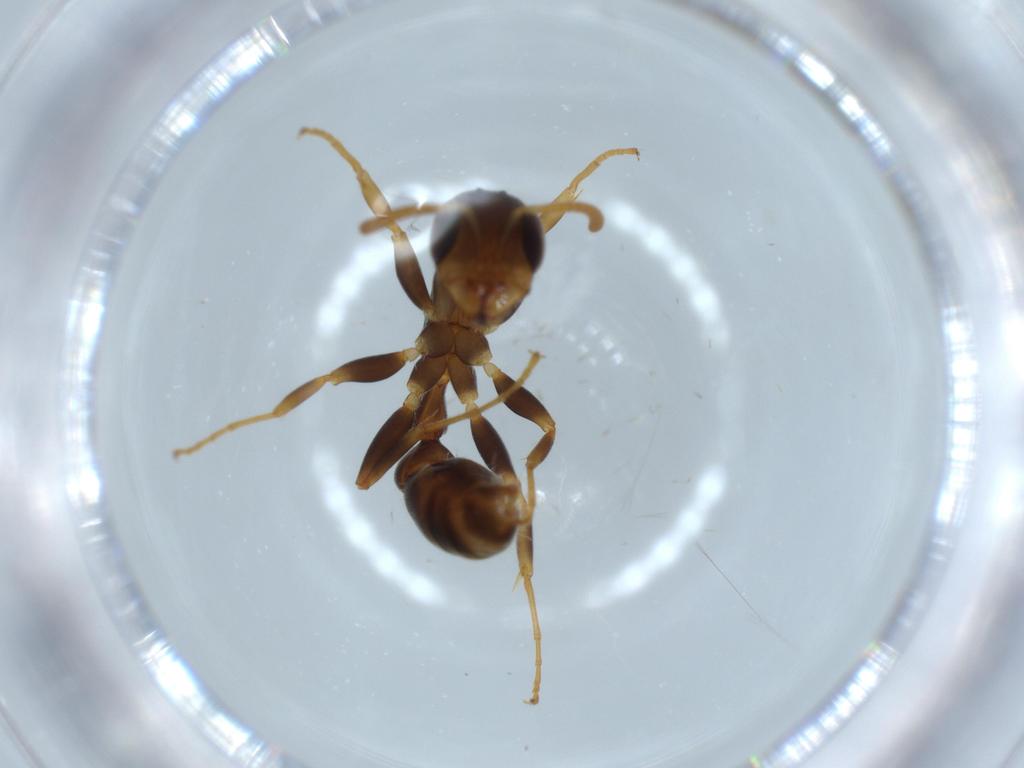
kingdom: Animalia
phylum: Arthropoda
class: Insecta
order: Hymenoptera
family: Formicidae
